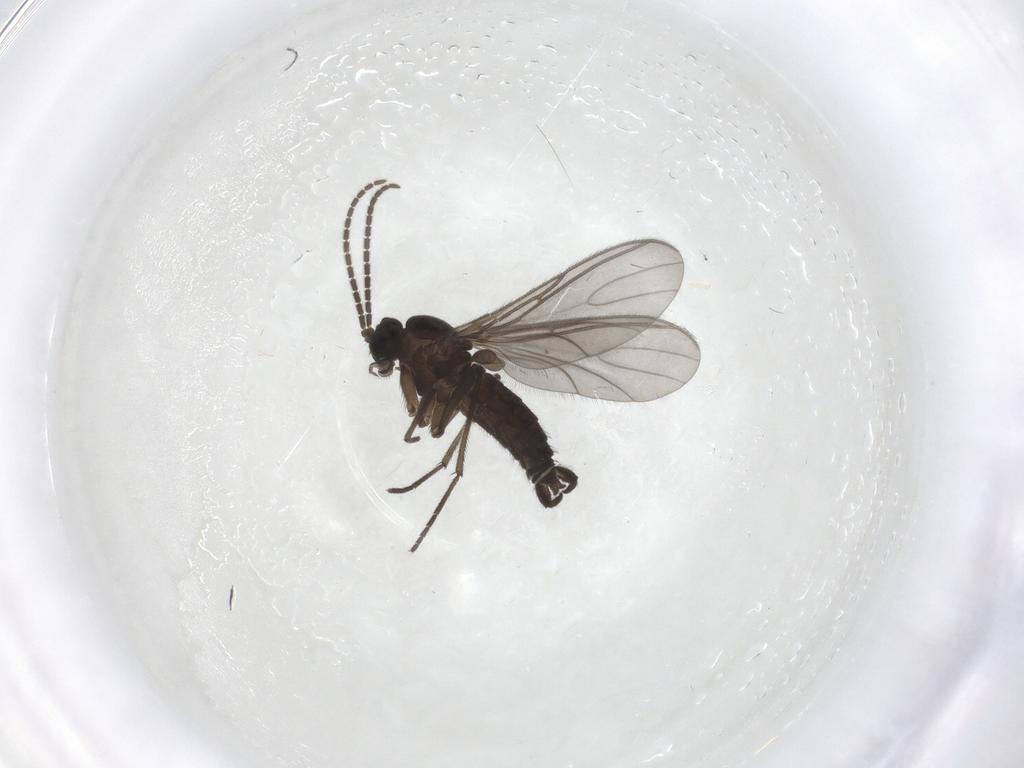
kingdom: Animalia
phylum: Arthropoda
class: Insecta
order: Diptera
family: Sciaridae
